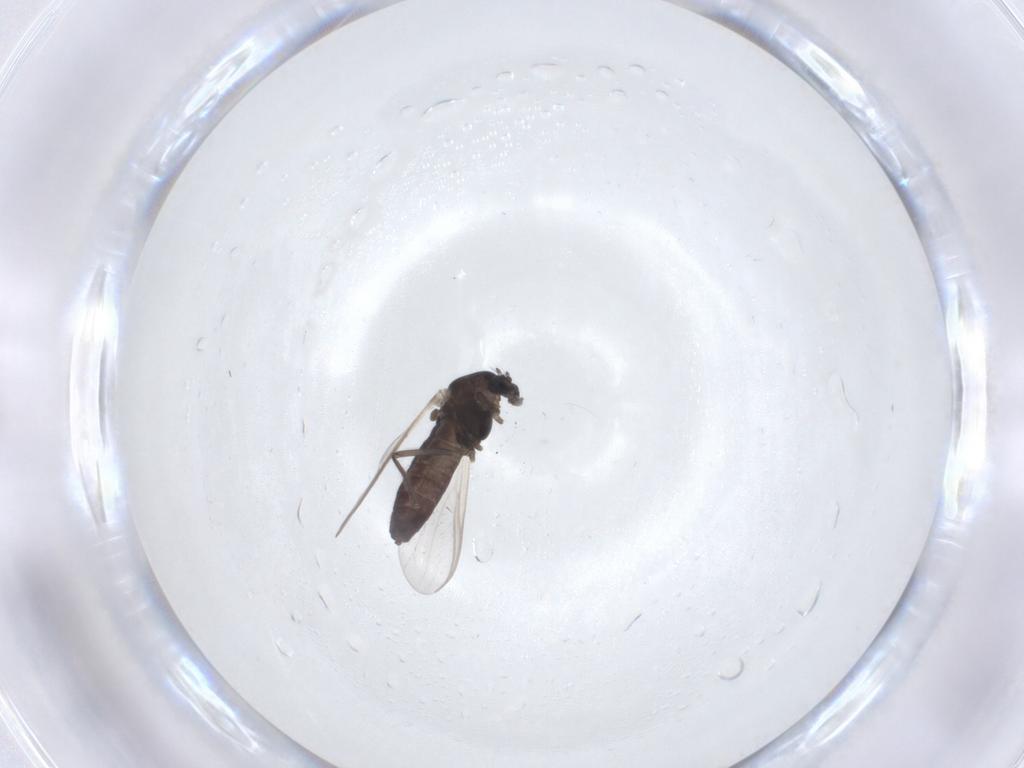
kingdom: Animalia
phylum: Arthropoda
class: Insecta
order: Diptera
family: Chironomidae
